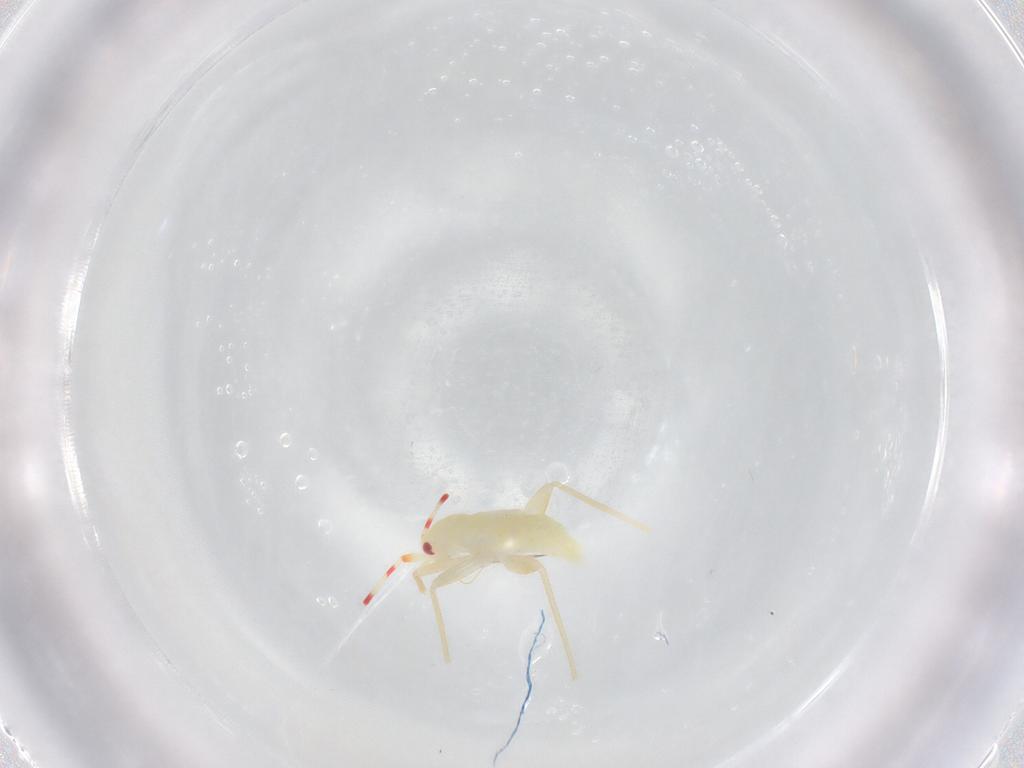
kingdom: Animalia
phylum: Arthropoda
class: Insecta
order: Hemiptera
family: Miridae
